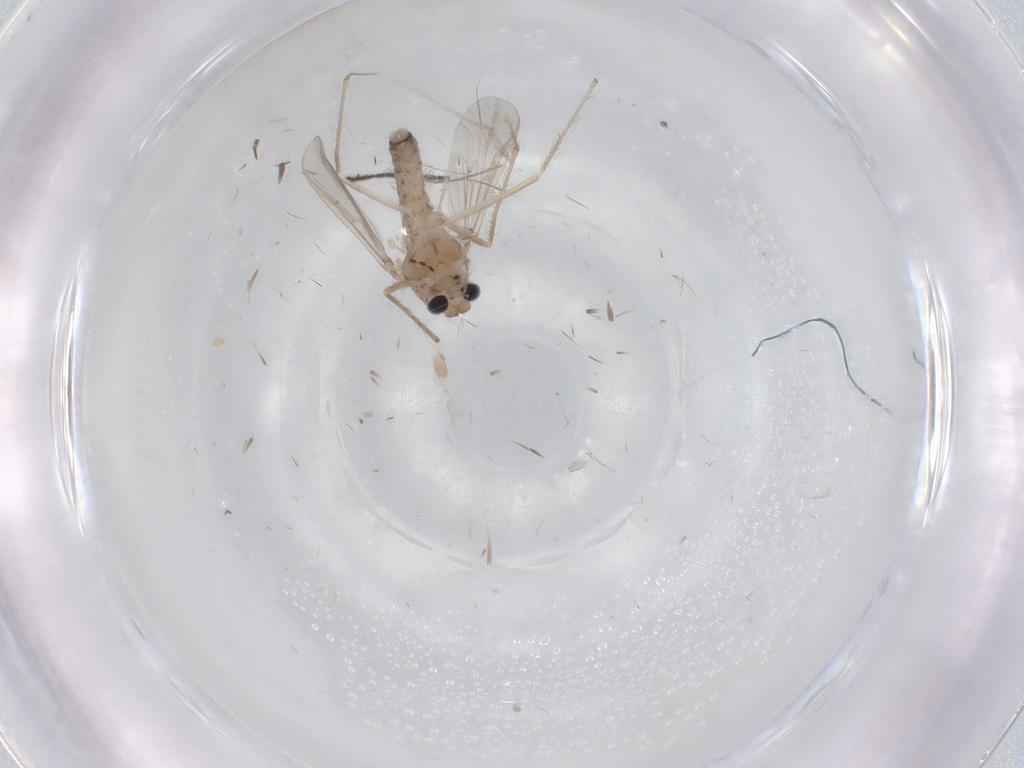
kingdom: Animalia
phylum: Arthropoda
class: Insecta
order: Diptera
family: Chironomidae
